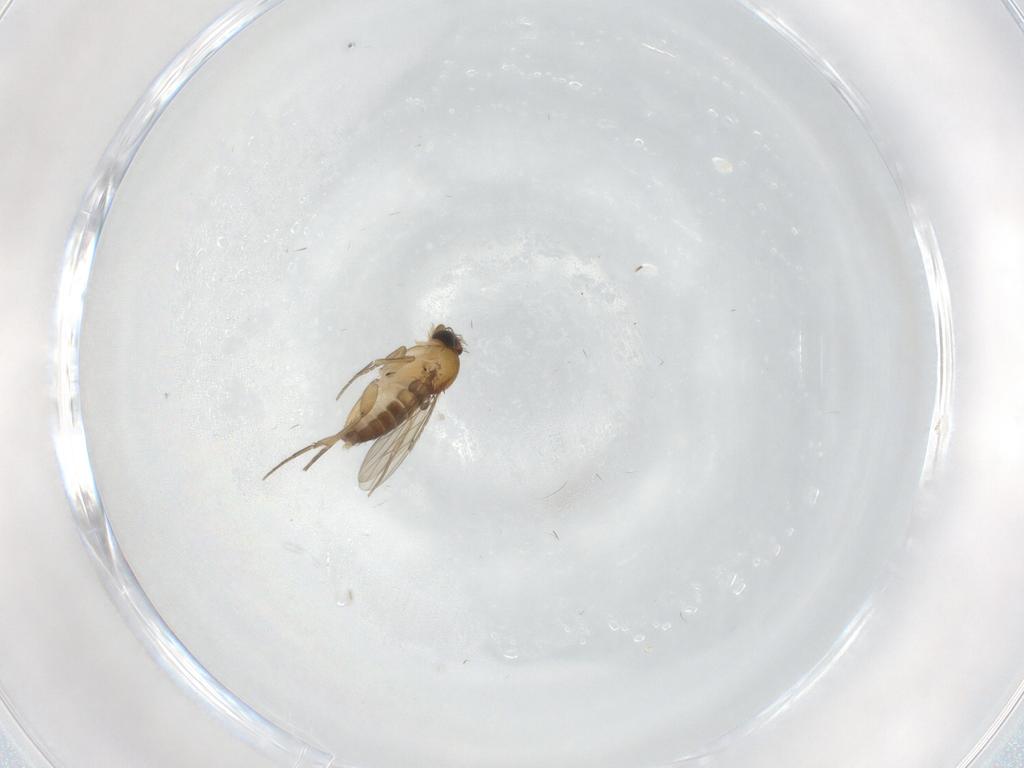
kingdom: Animalia
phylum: Arthropoda
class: Insecta
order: Diptera
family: Phoridae
